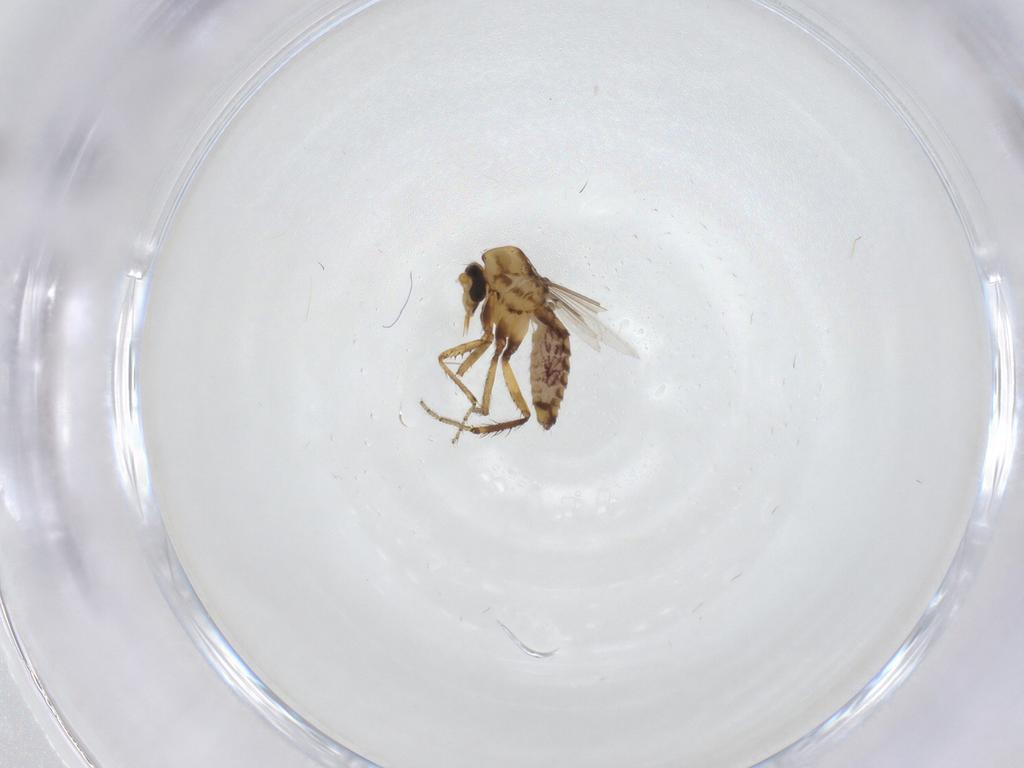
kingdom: Animalia
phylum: Arthropoda
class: Insecta
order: Diptera
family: Ceratopogonidae
